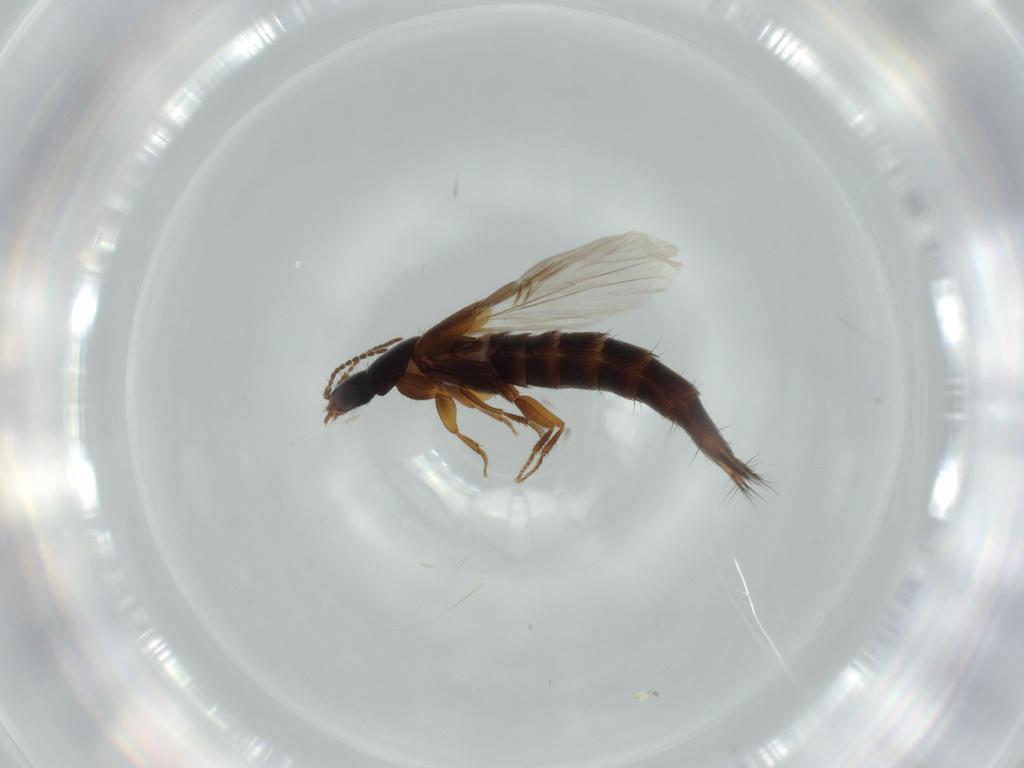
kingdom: Animalia
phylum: Arthropoda
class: Insecta
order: Coleoptera
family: Staphylinidae
